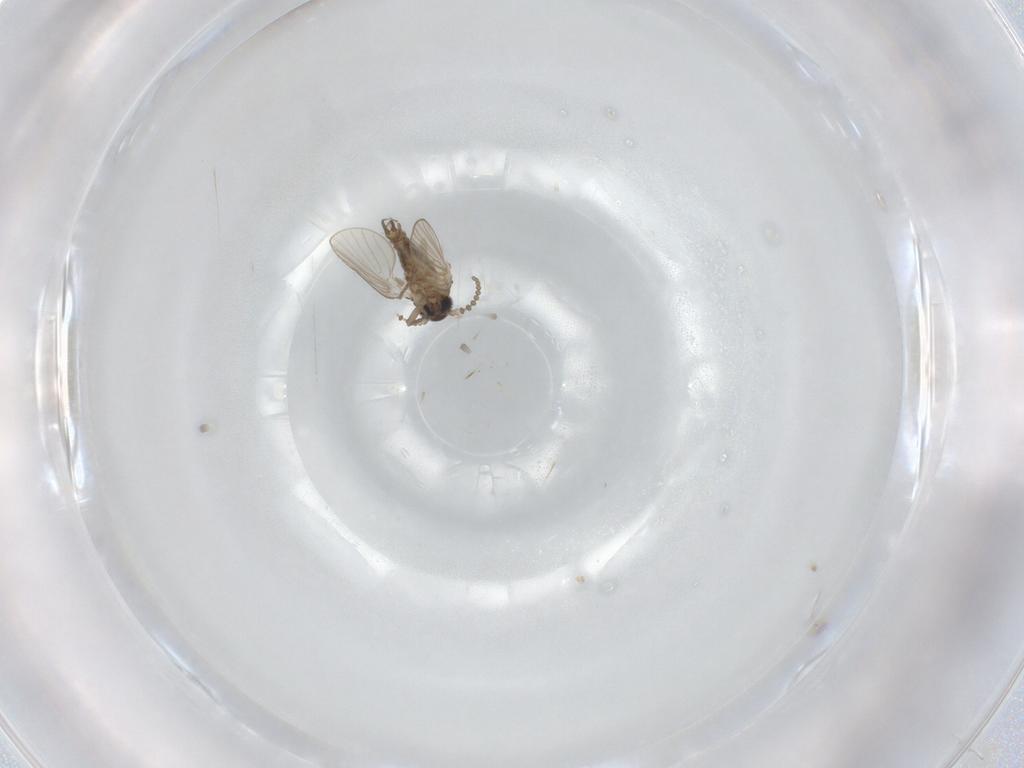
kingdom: Animalia
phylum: Arthropoda
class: Insecta
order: Diptera
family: Psychodidae
